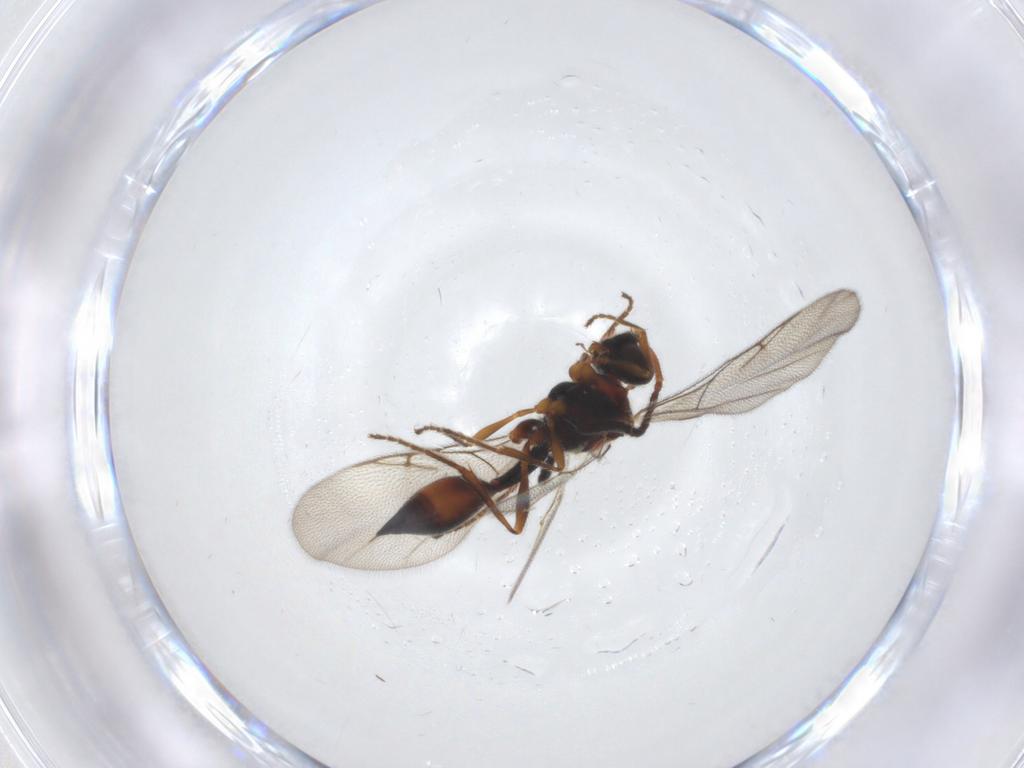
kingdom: Animalia
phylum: Arthropoda
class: Insecta
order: Hymenoptera
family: Diapriidae
